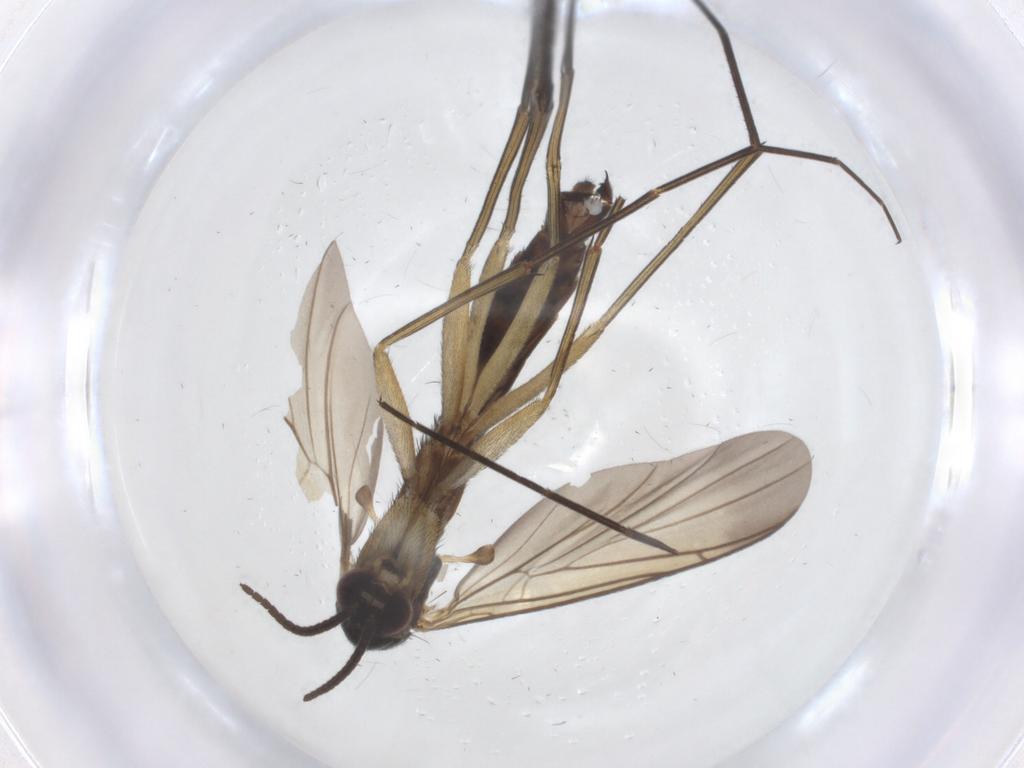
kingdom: Animalia
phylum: Arthropoda
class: Insecta
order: Diptera
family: Keroplatidae
